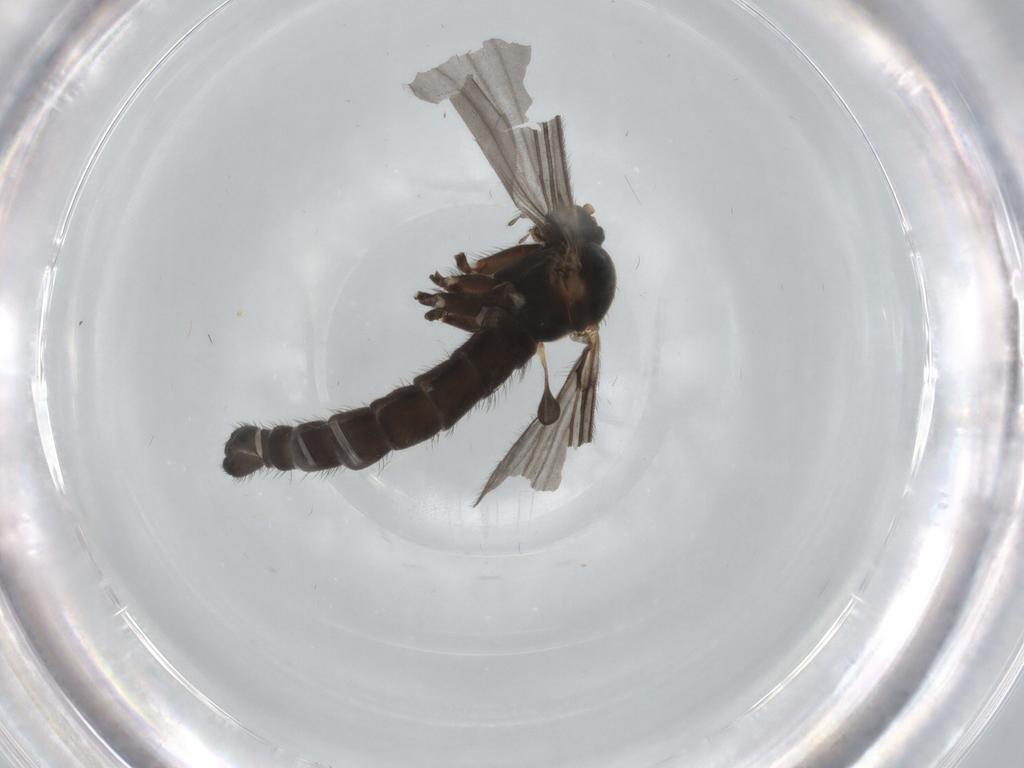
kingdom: Animalia
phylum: Arthropoda
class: Insecta
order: Diptera
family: Sciaridae
